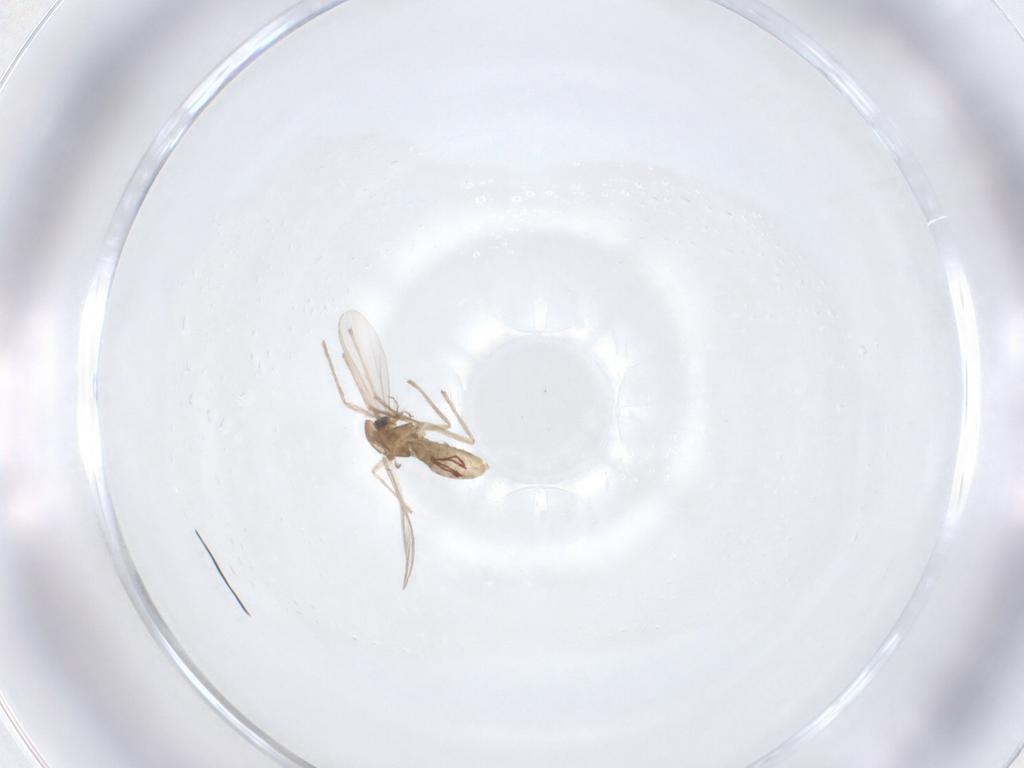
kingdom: Animalia
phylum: Arthropoda
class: Insecta
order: Diptera
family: Chironomidae
